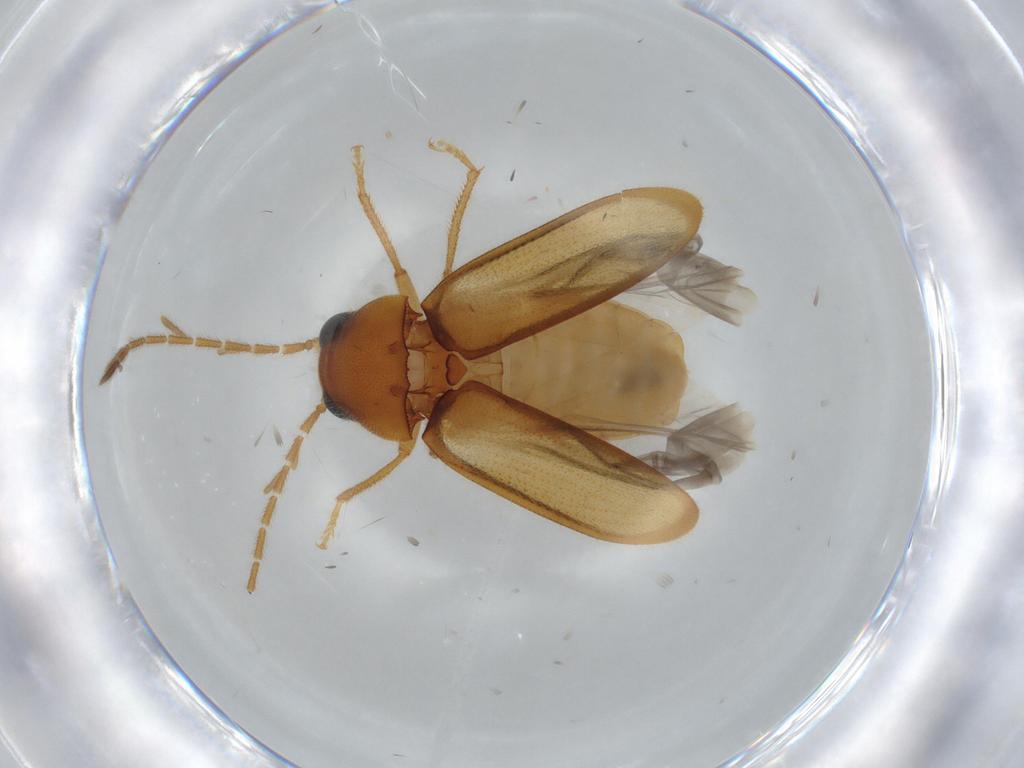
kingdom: Animalia
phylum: Arthropoda
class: Insecta
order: Coleoptera
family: Ptilodactylidae
